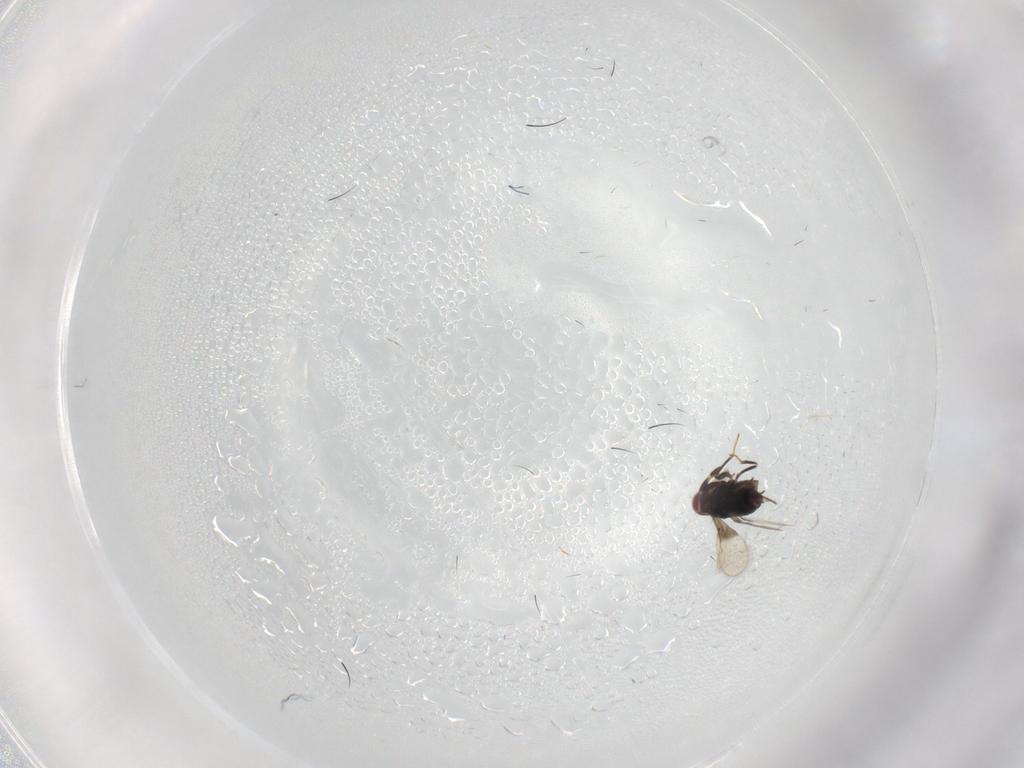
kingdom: Animalia
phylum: Arthropoda
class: Insecta
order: Hymenoptera
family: Azotidae
